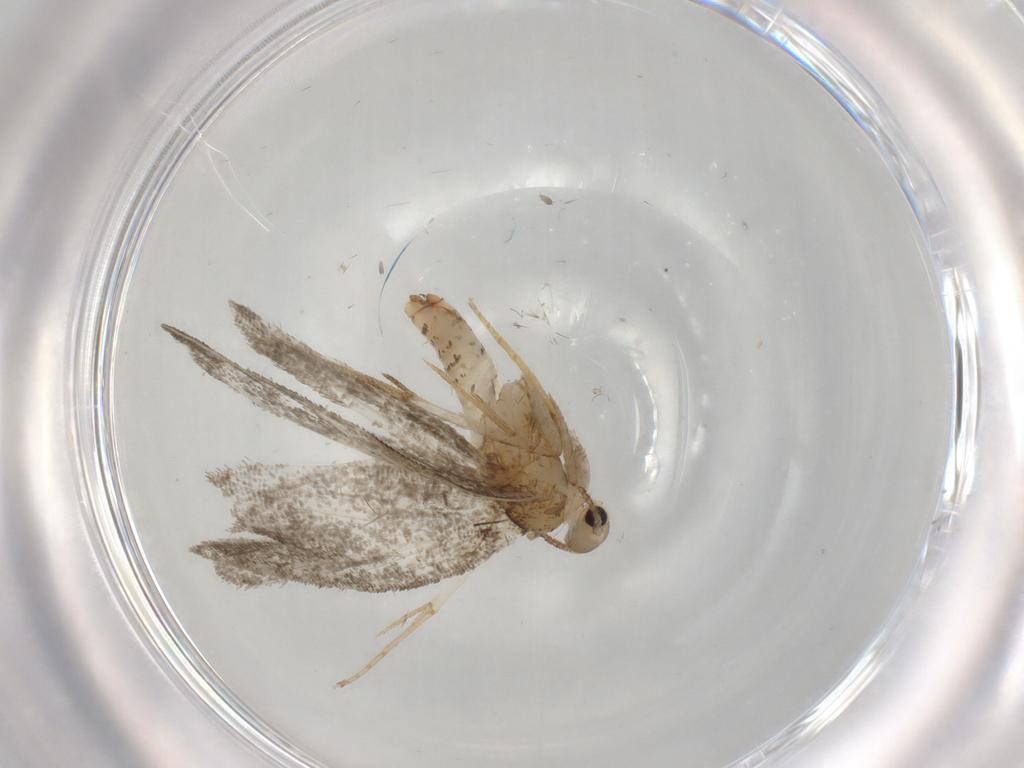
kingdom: Animalia
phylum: Arthropoda
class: Insecta
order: Lepidoptera
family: Psychidae
